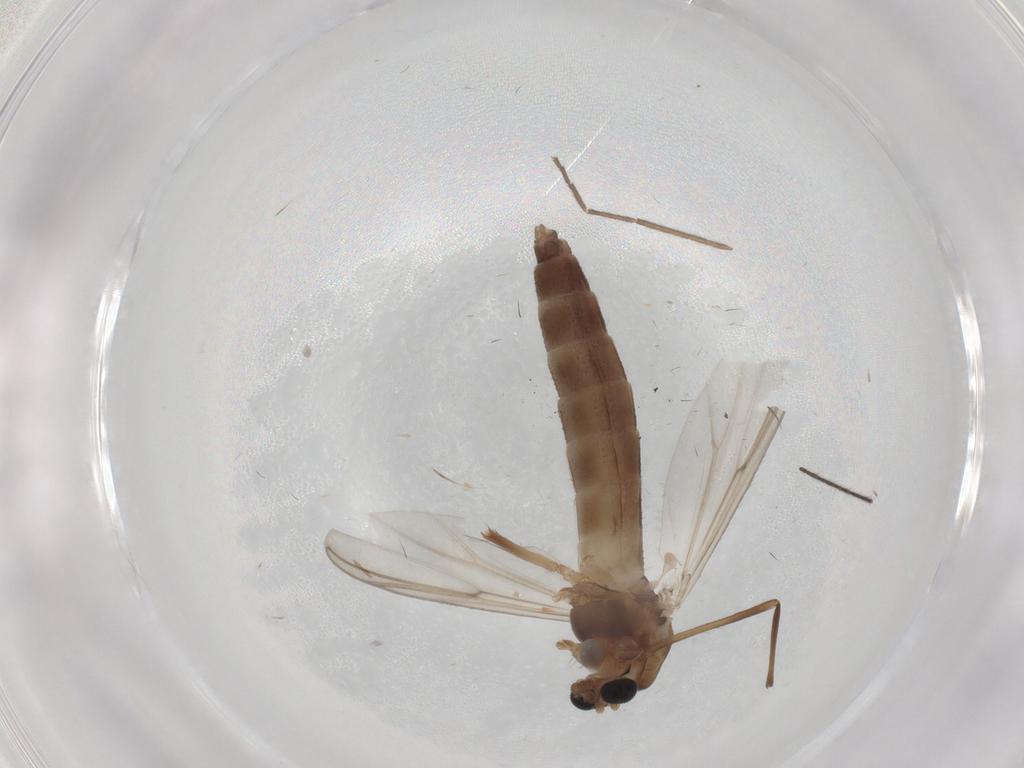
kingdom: Animalia
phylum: Arthropoda
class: Insecta
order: Diptera
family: Chironomidae
